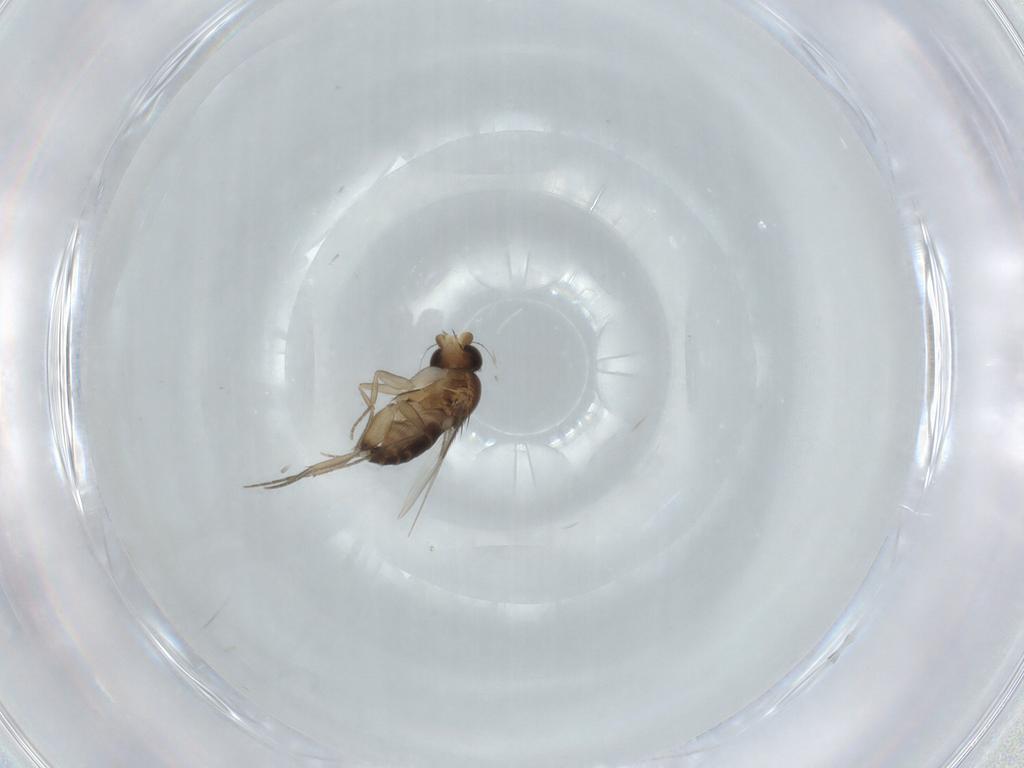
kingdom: Animalia
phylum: Arthropoda
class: Insecta
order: Diptera
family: Phoridae
